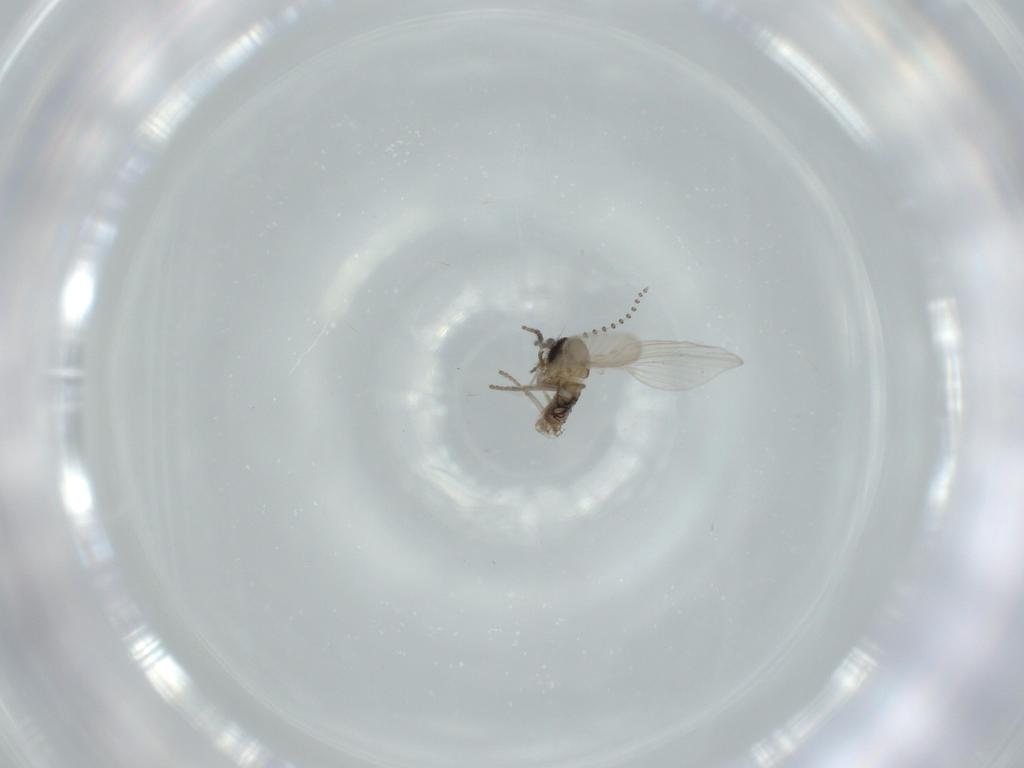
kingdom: Animalia
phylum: Arthropoda
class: Insecta
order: Diptera
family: Psychodidae
